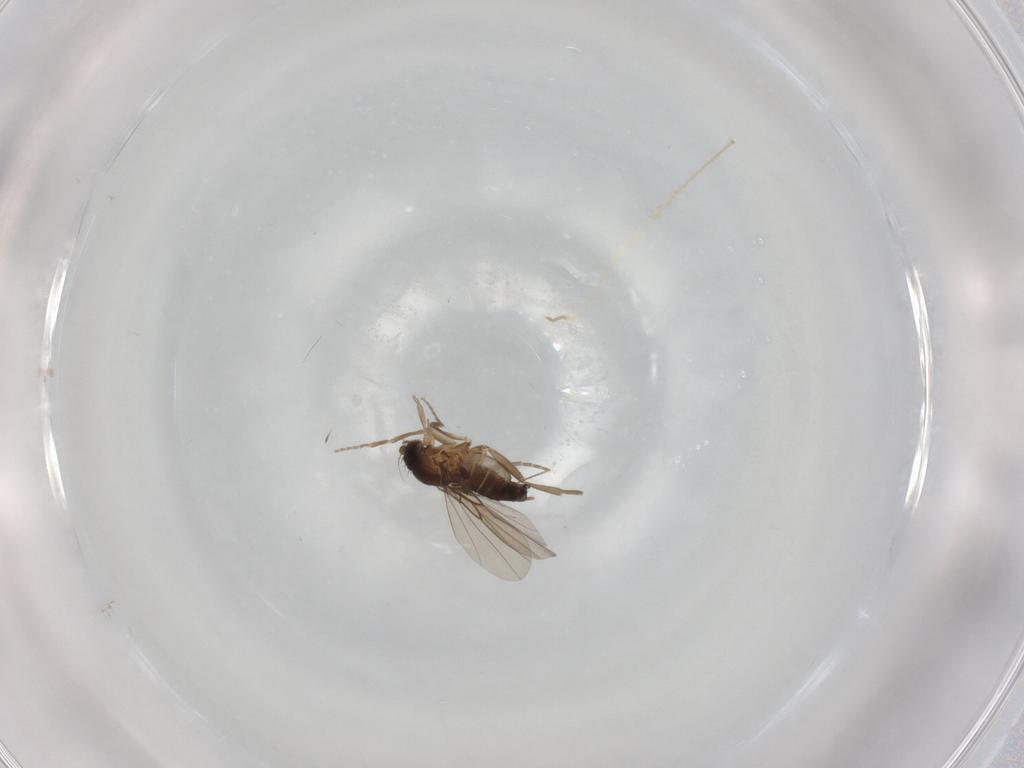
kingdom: Animalia
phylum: Arthropoda
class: Insecta
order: Diptera
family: Chironomidae
